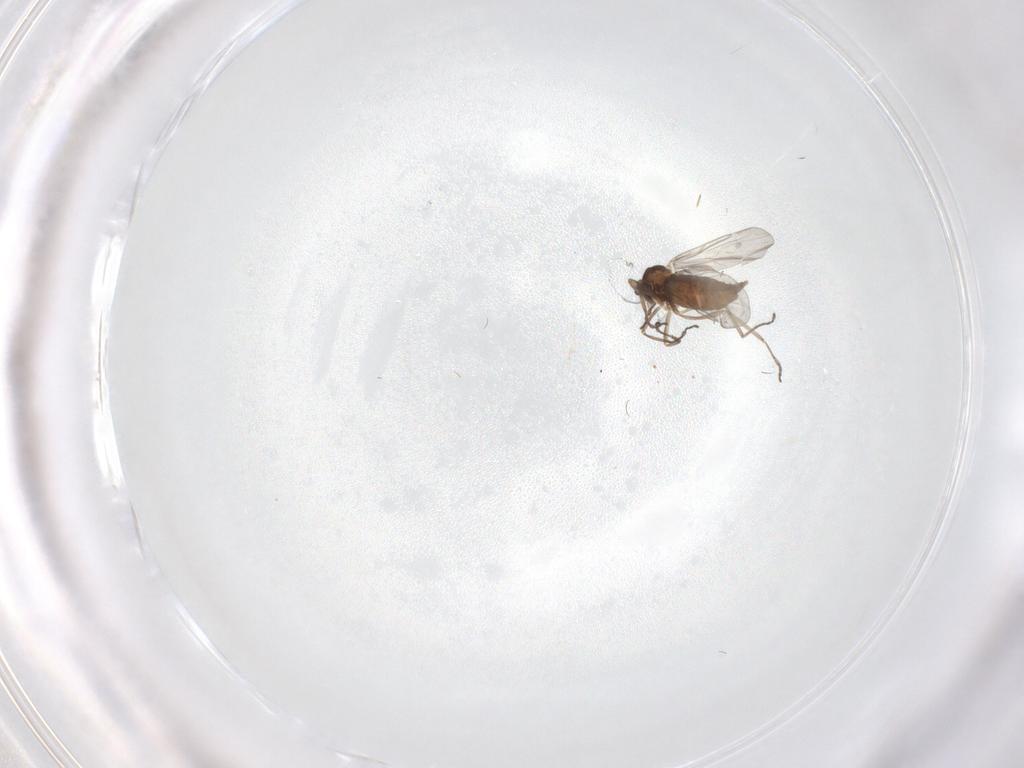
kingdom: Animalia
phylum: Arthropoda
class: Insecta
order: Diptera
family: Cecidomyiidae
